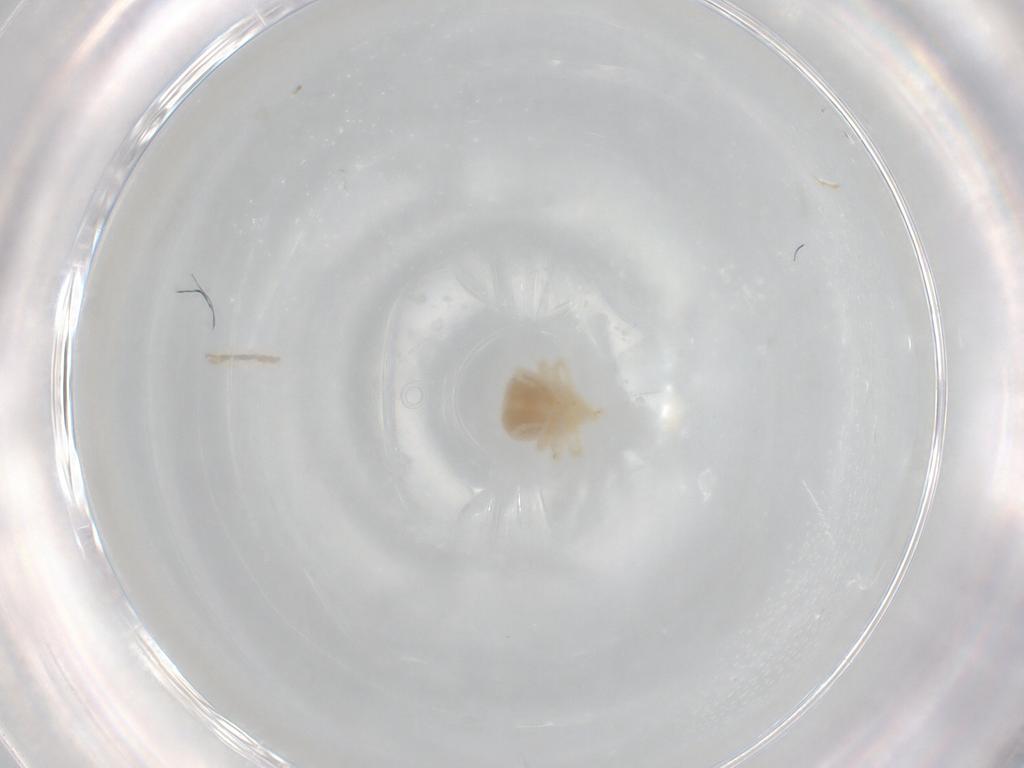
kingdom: Animalia
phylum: Arthropoda
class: Arachnida
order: Trombidiformes
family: Anystidae
